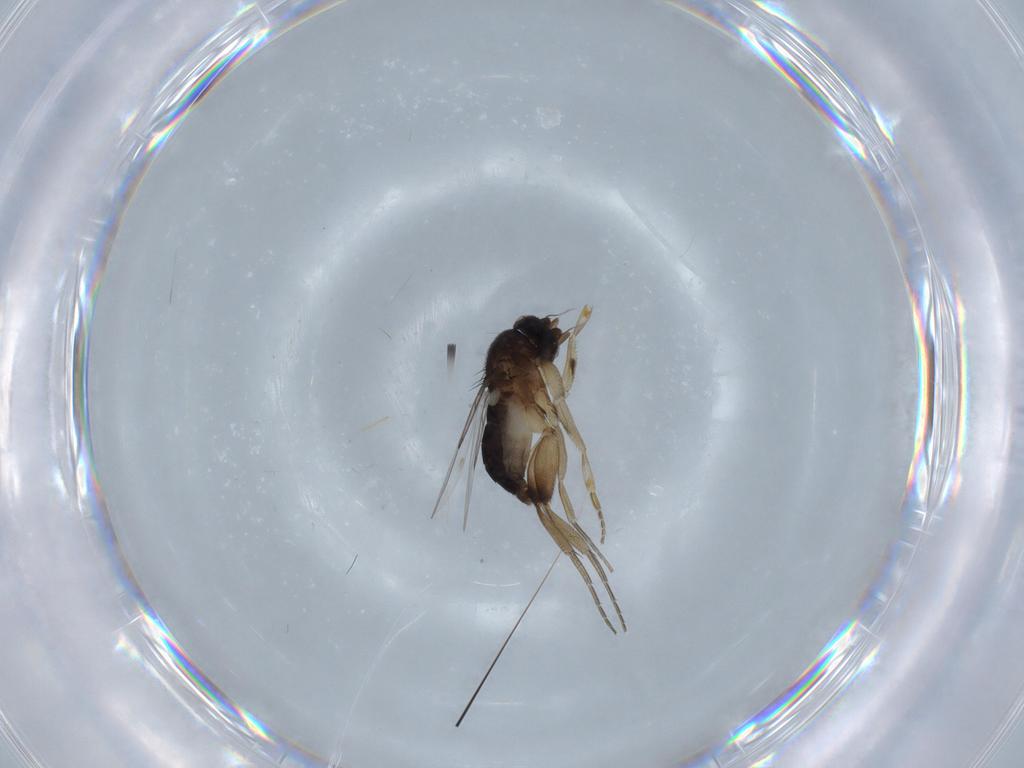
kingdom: Animalia
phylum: Arthropoda
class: Insecta
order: Diptera
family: Phoridae
